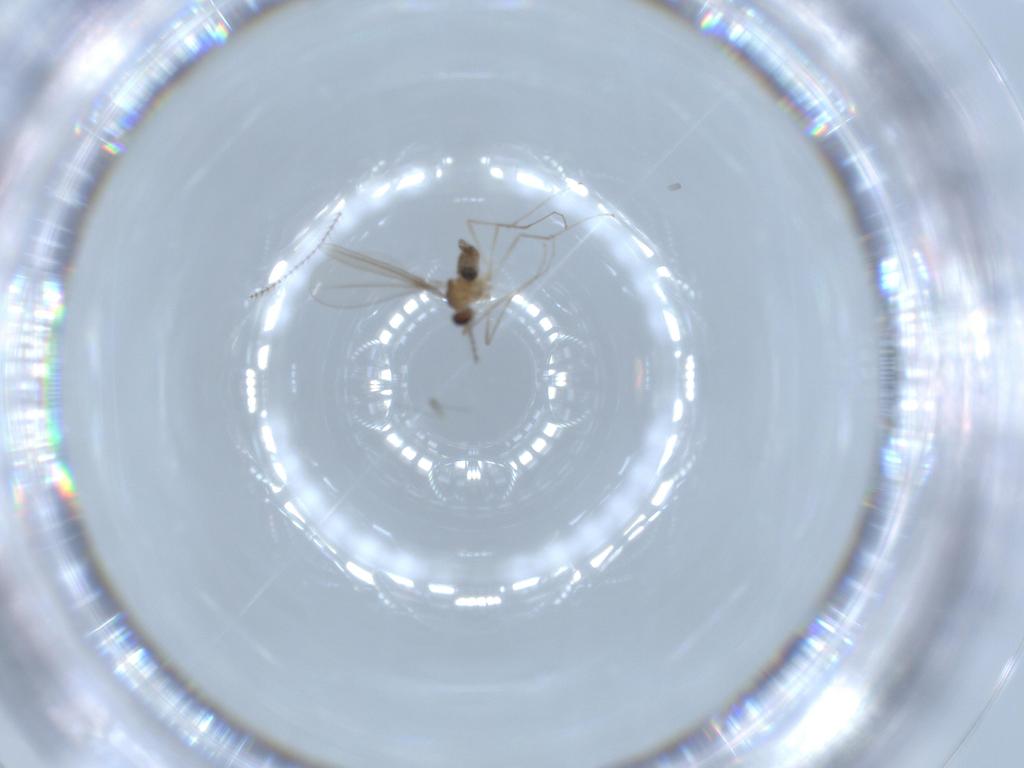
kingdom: Animalia
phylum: Arthropoda
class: Insecta
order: Diptera
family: Cecidomyiidae
